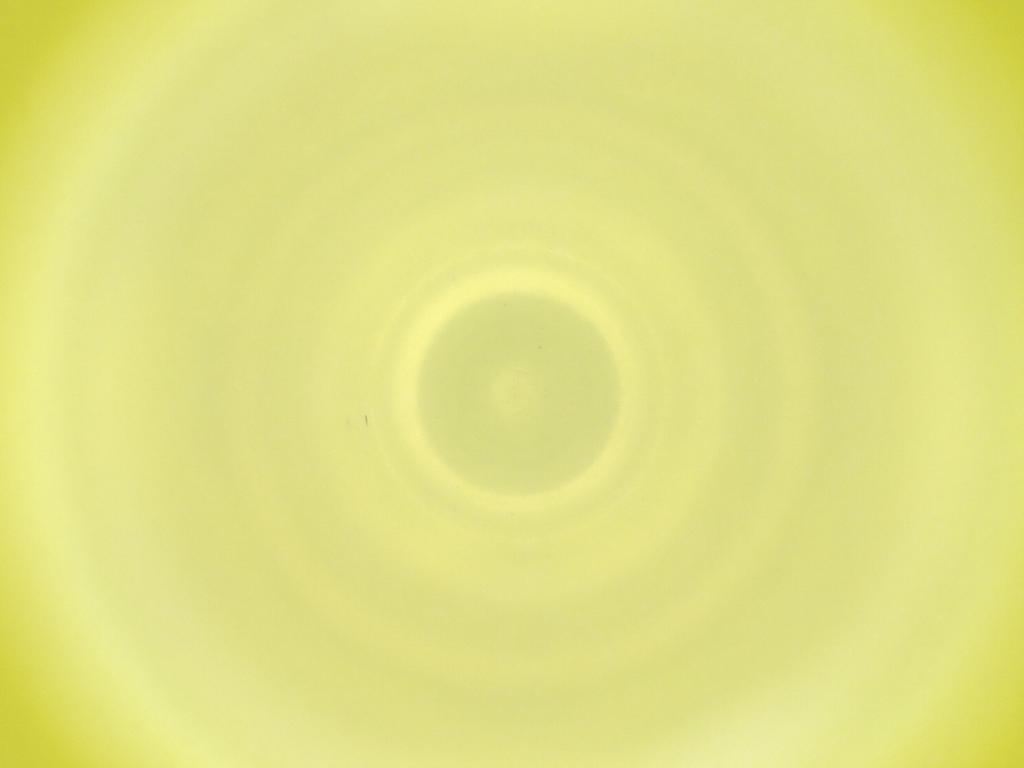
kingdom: Animalia
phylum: Arthropoda
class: Insecta
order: Diptera
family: Cecidomyiidae
